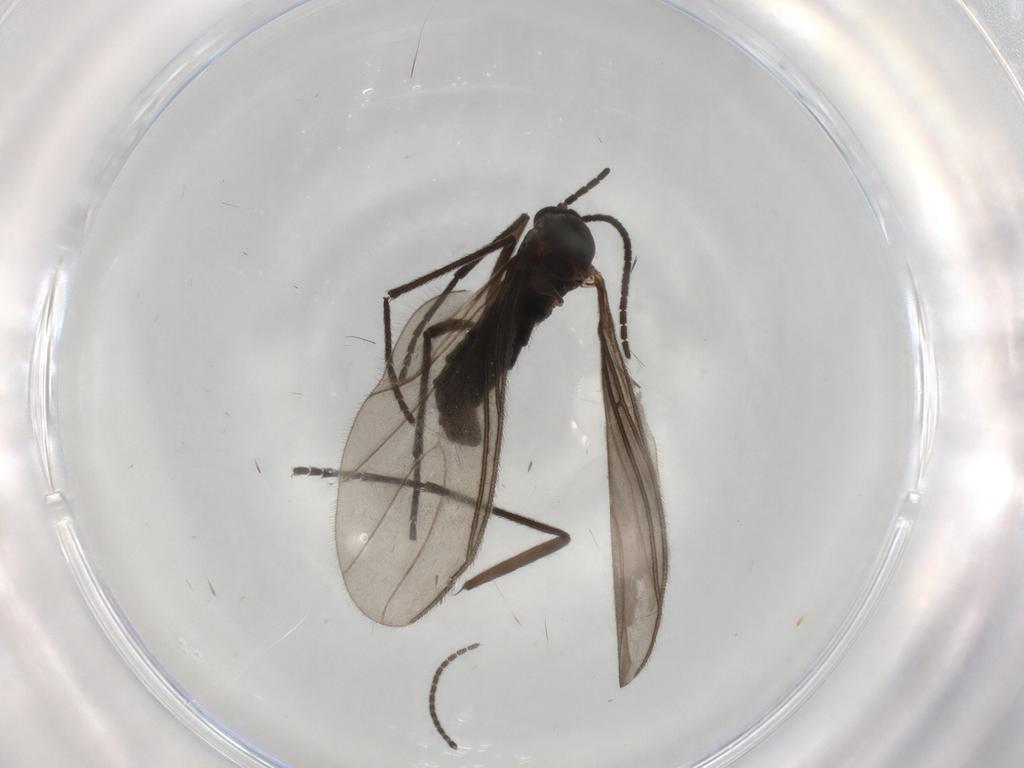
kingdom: Animalia
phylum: Arthropoda
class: Insecta
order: Diptera
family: Sciaridae
